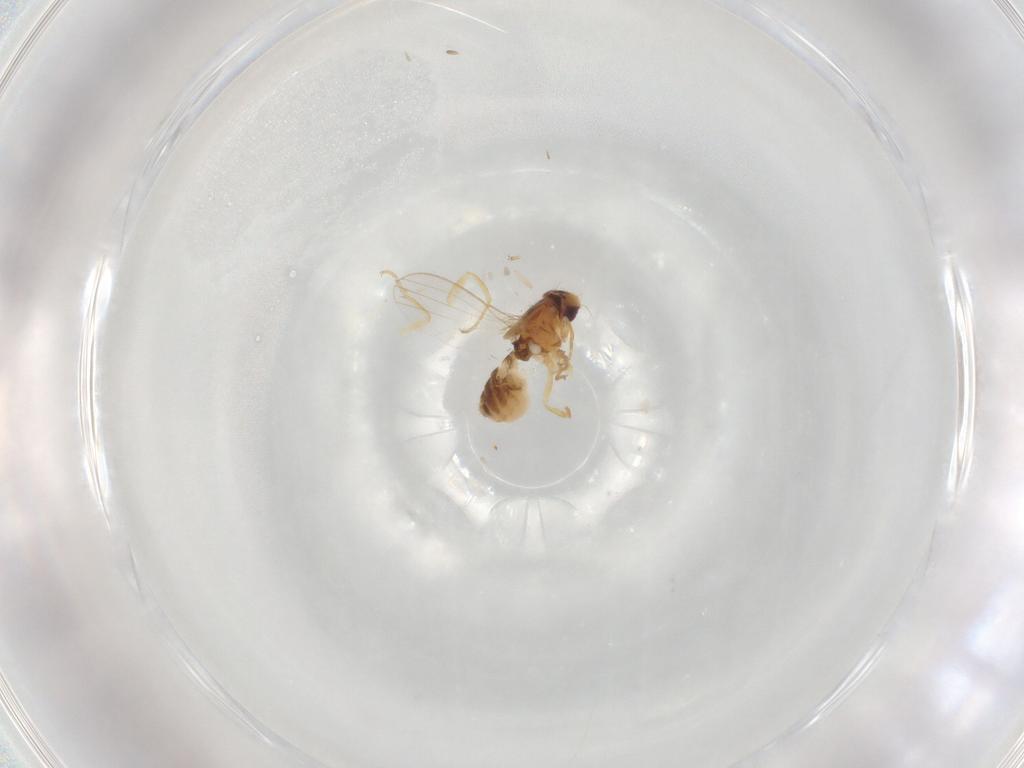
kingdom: Animalia
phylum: Arthropoda
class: Insecta
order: Diptera
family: Chyromyidae
